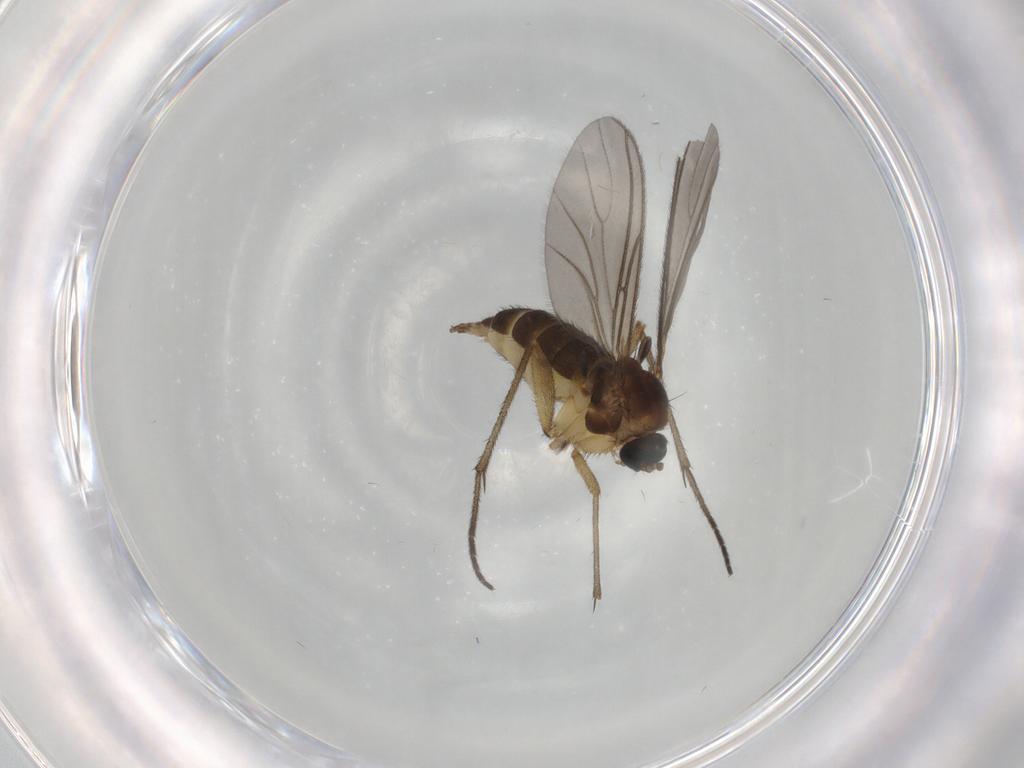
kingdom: Animalia
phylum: Arthropoda
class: Insecta
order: Diptera
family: Sciaridae
